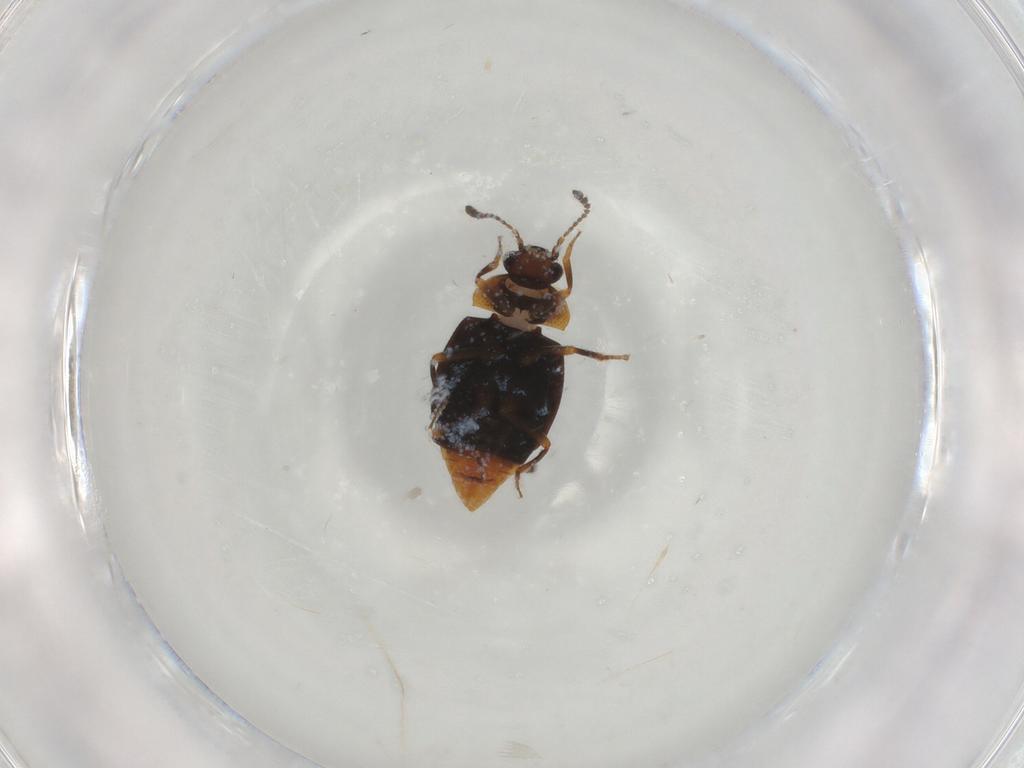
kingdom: Animalia
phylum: Arthropoda
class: Insecta
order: Coleoptera
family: Staphylinidae
